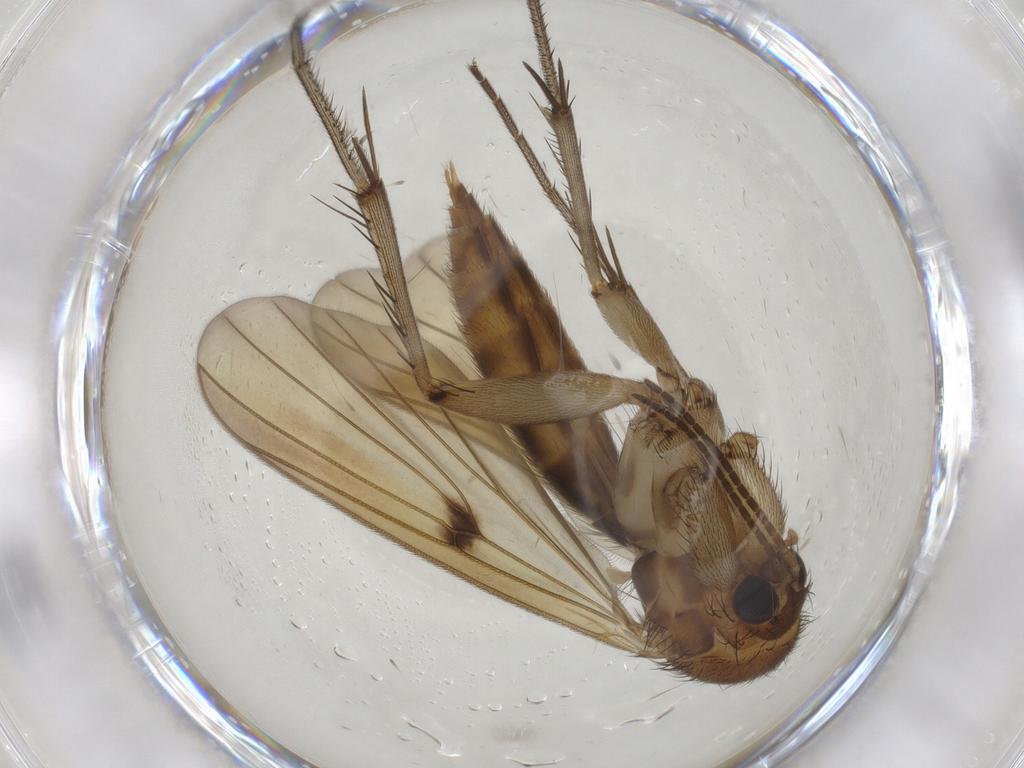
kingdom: Animalia
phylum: Arthropoda
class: Insecta
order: Diptera
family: Mycetophilidae
